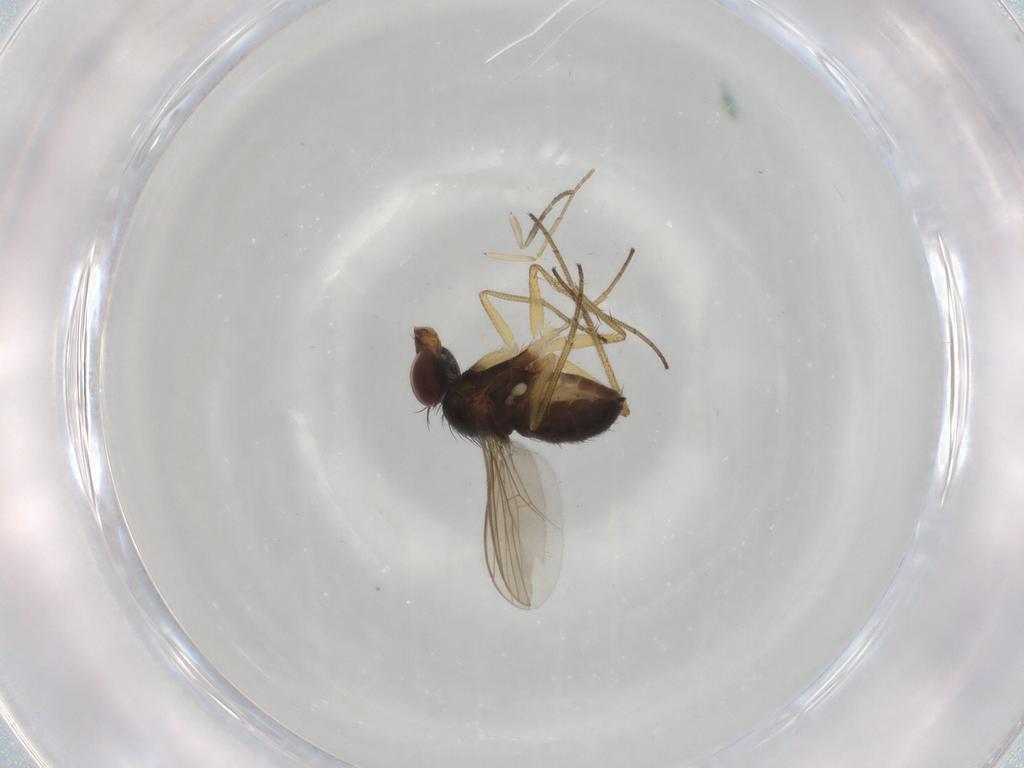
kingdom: Animalia
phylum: Arthropoda
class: Insecta
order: Diptera
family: Dolichopodidae
